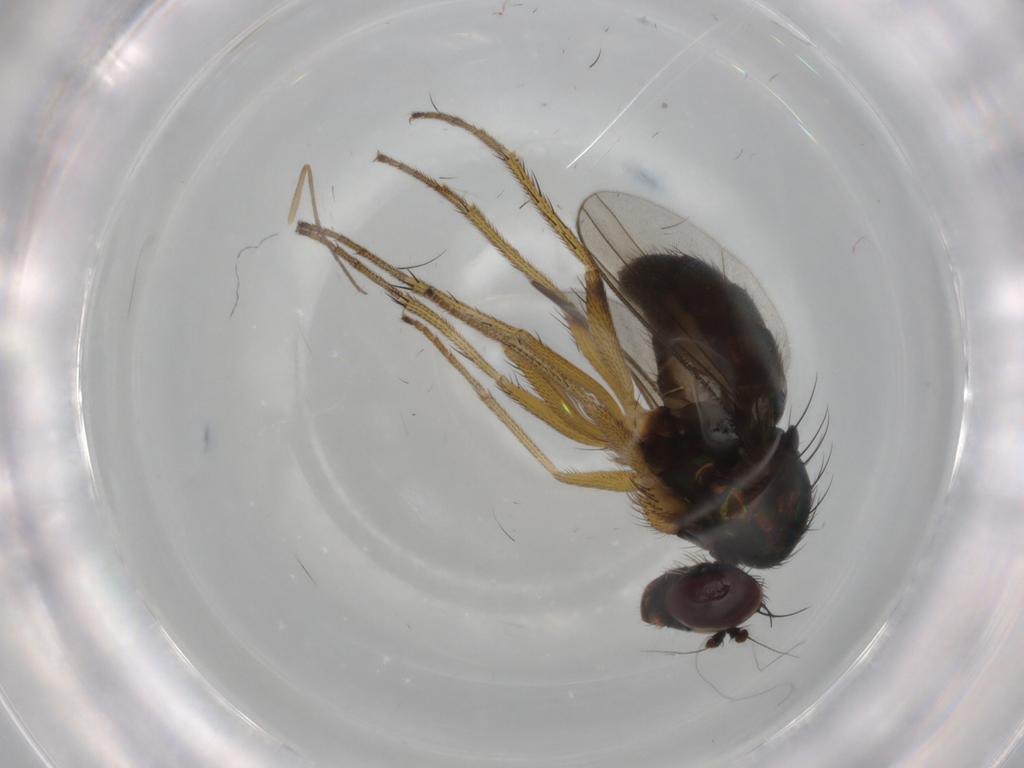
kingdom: Animalia
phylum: Arthropoda
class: Insecta
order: Diptera
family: Dolichopodidae
